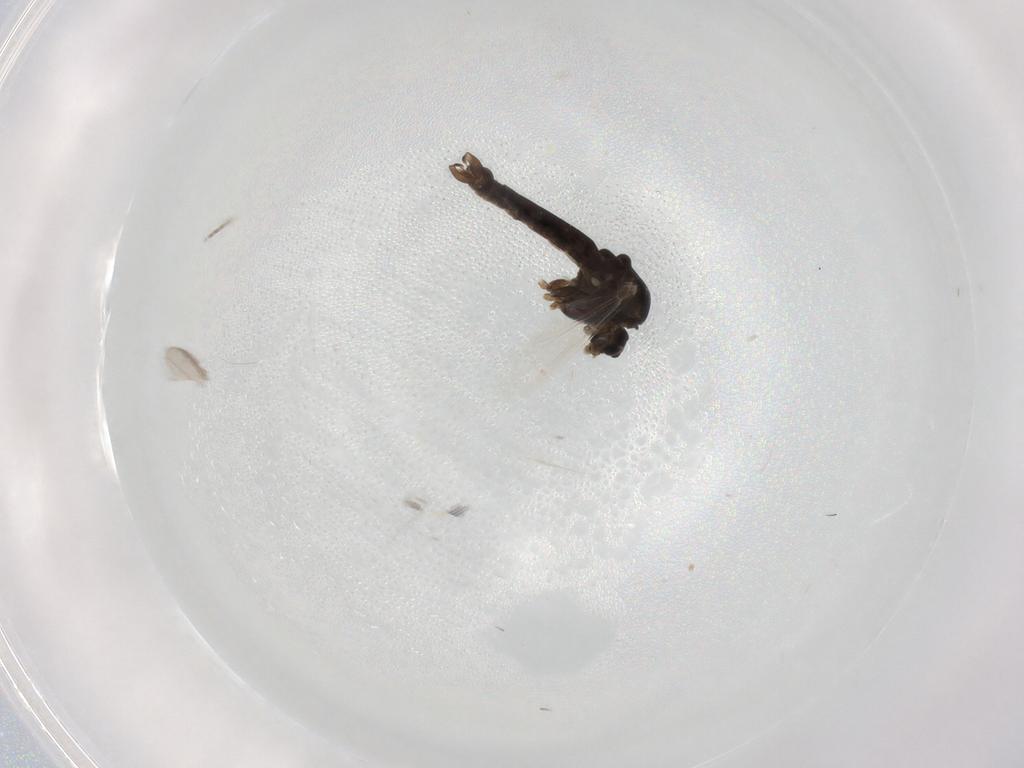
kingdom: Animalia
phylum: Arthropoda
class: Insecta
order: Diptera
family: Chironomidae
